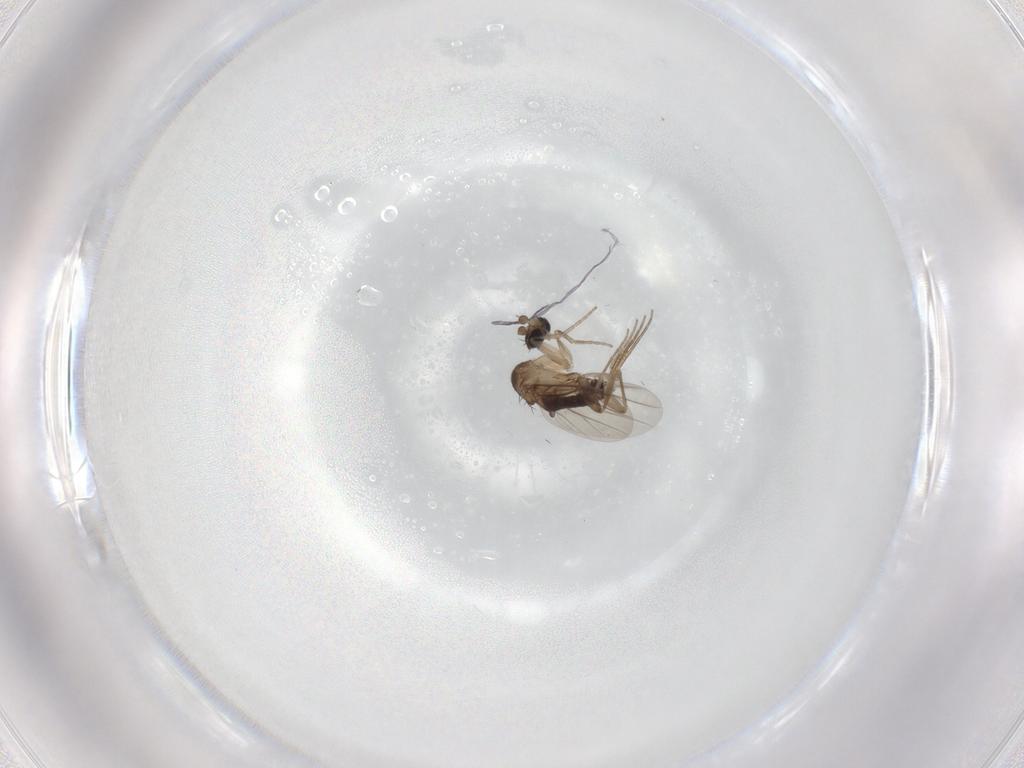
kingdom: Animalia
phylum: Arthropoda
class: Insecta
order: Diptera
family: Phoridae
